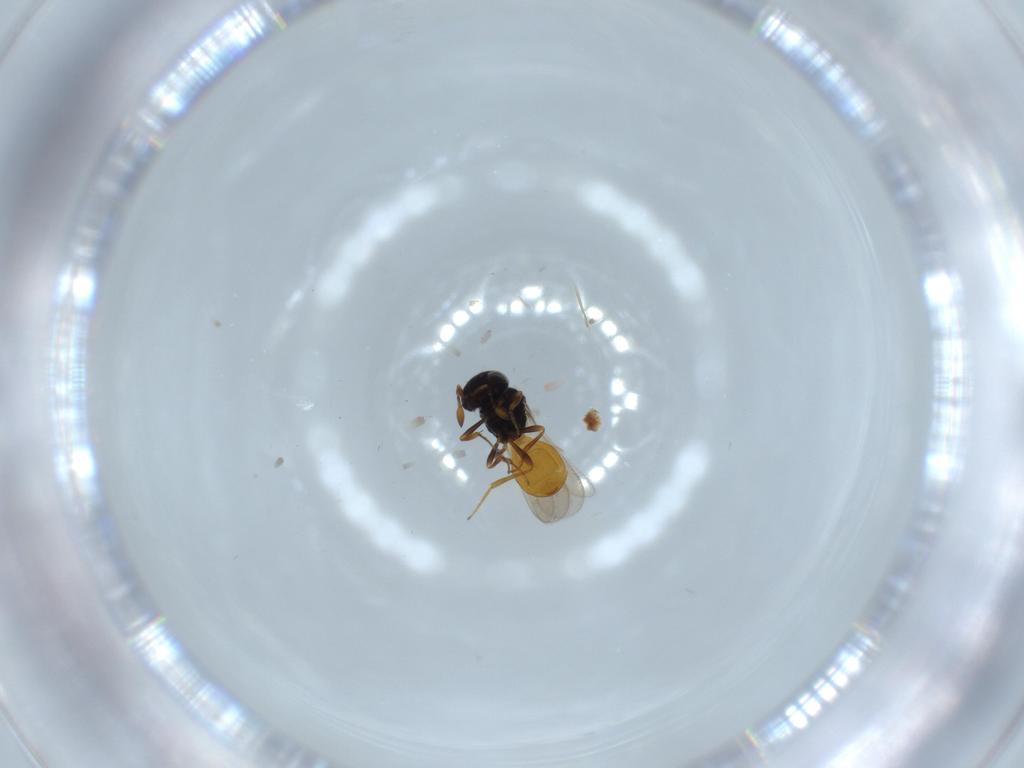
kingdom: Animalia
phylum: Arthropoda
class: Insecta
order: Hymenoptera
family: Scelionidae
